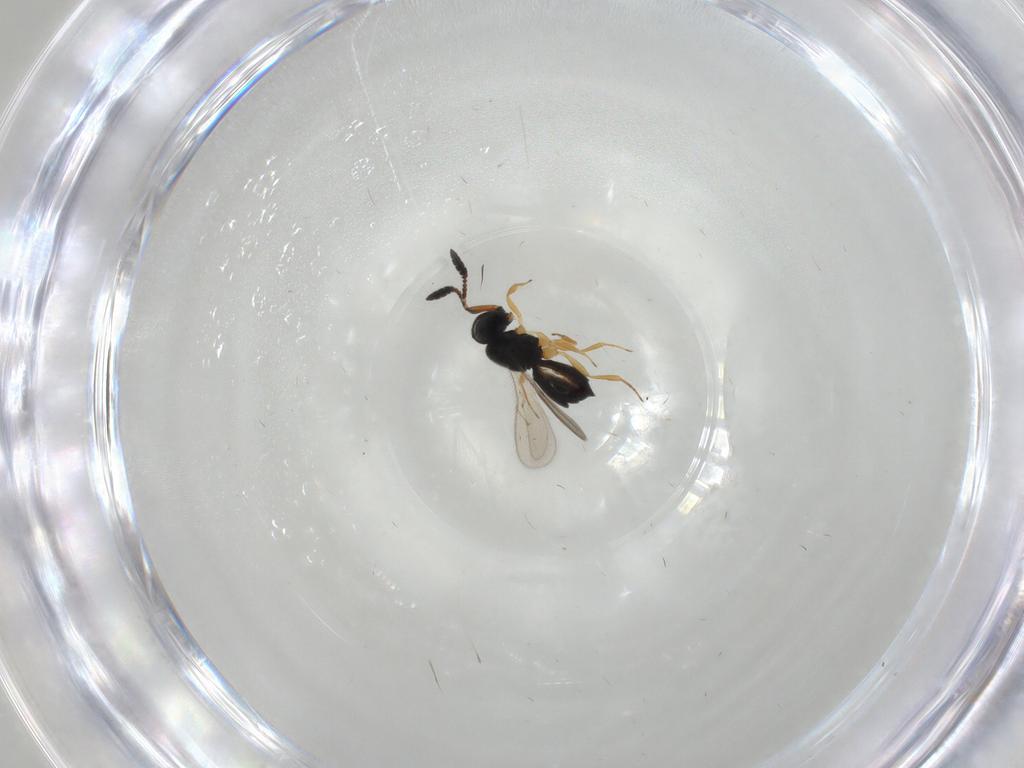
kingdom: Animalia
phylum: Arthropoda
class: Insecta
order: Hymenoptera
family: Scelionidae
